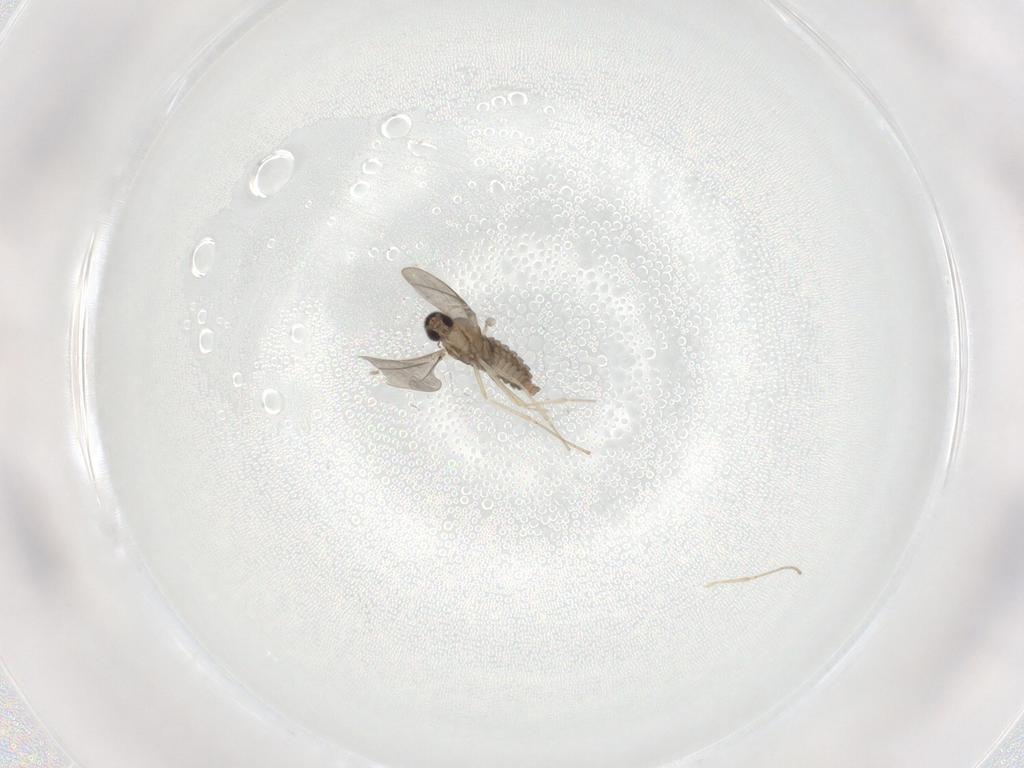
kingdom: Animalia
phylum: Arthropoda
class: Insecta
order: Diptera
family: Cecidomyiidae
